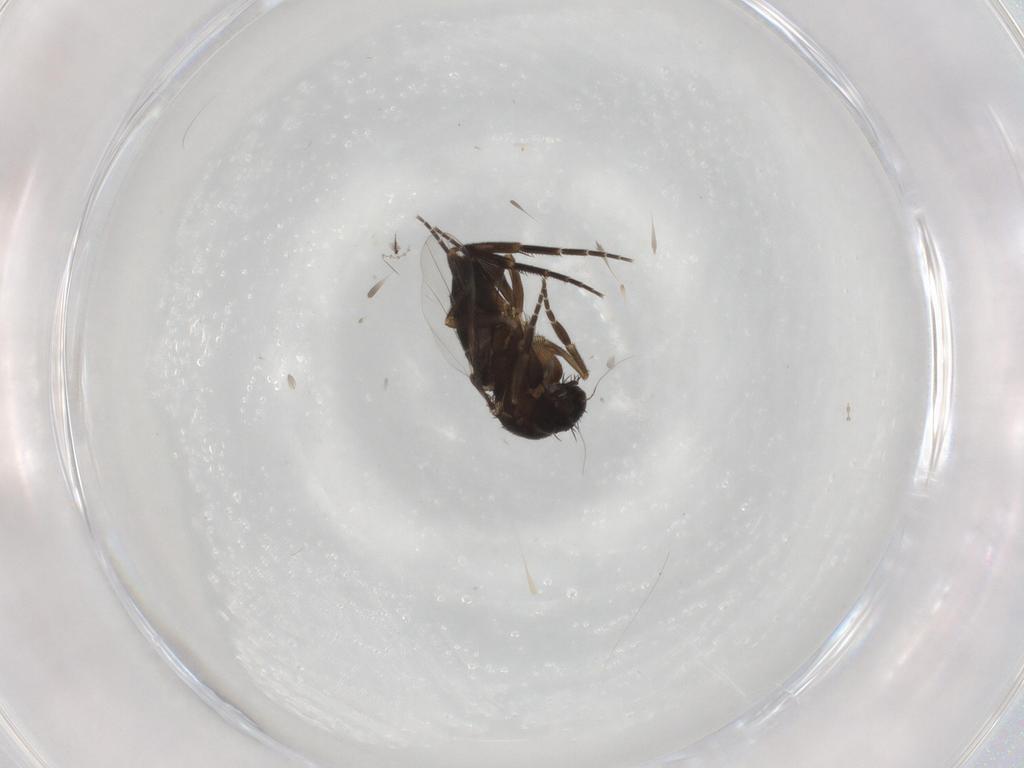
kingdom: Animalia
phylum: Arthropoda
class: Insecta
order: Diptera
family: Phoridae
